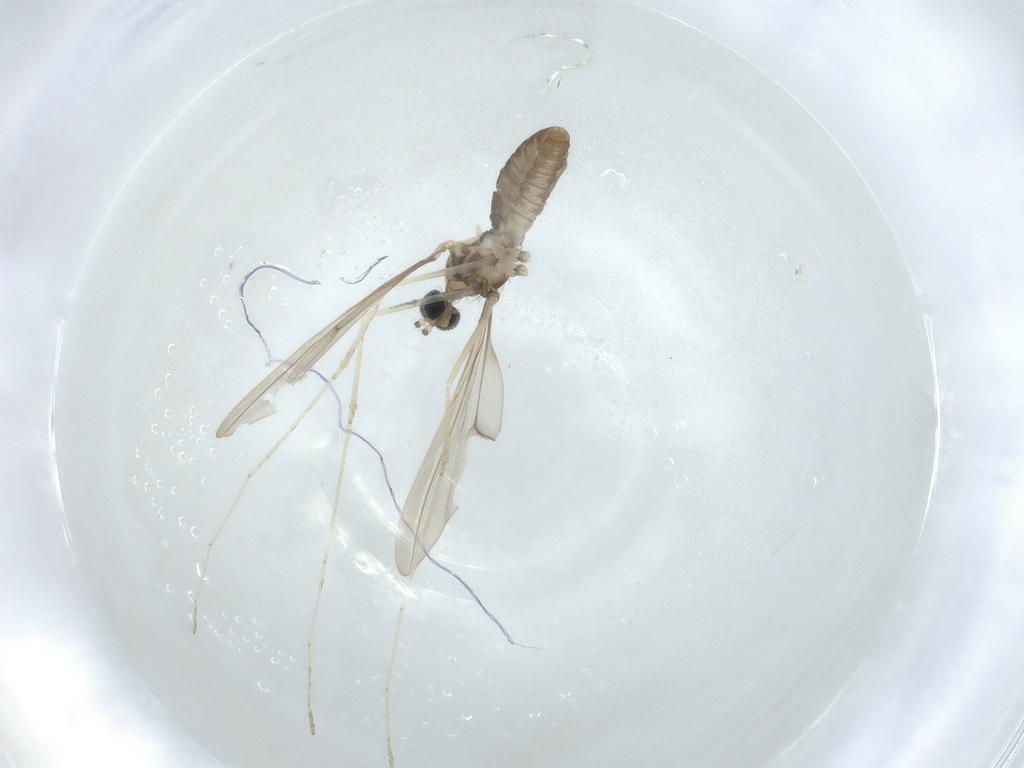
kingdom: Animalia
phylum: Arthropoda
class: Insecta
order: Diptera
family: Cecidomyiidae
